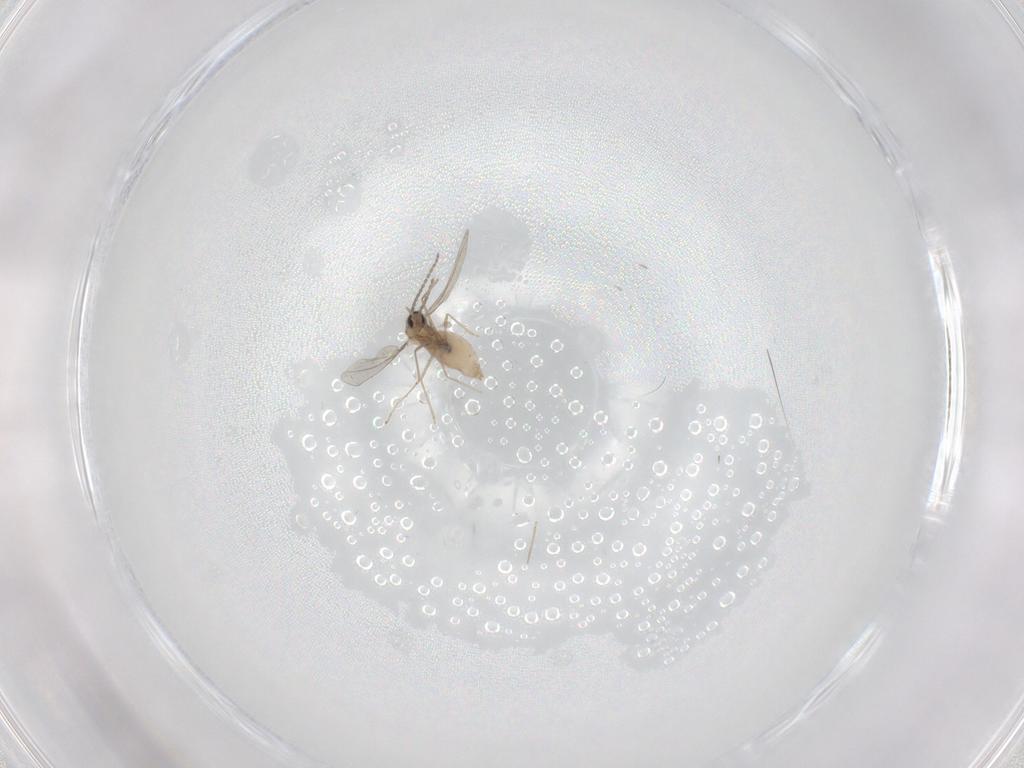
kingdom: Animalia
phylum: Arthropoda
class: Insecta
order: Diptera
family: Cecidomyiidae
